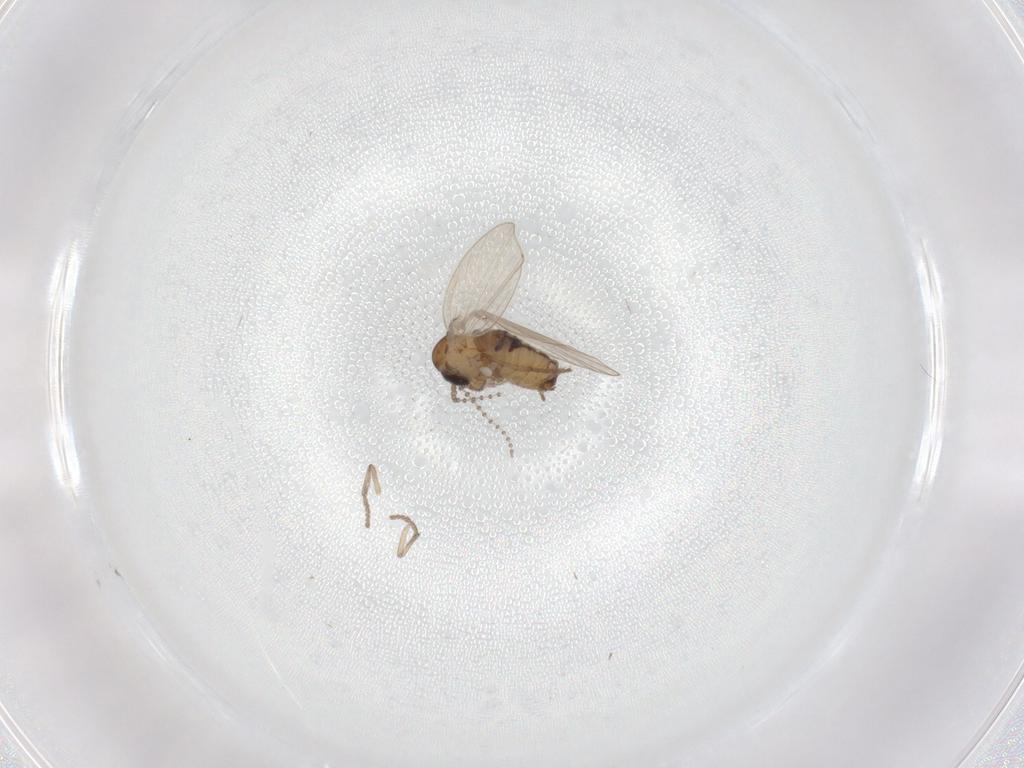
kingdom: Animalia
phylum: Arthropoda
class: Insecta
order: Diptera
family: Psychodidae
